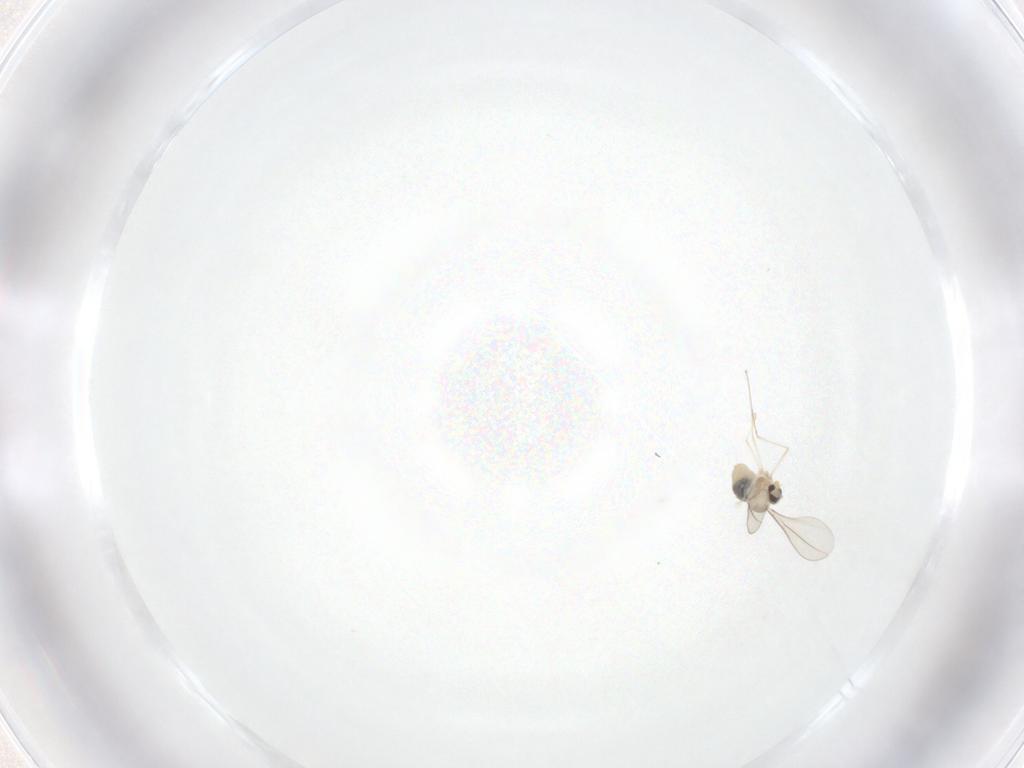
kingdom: Animalia
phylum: Arthropoda
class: Insecta
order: Diptera
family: Cecidomyiidae
